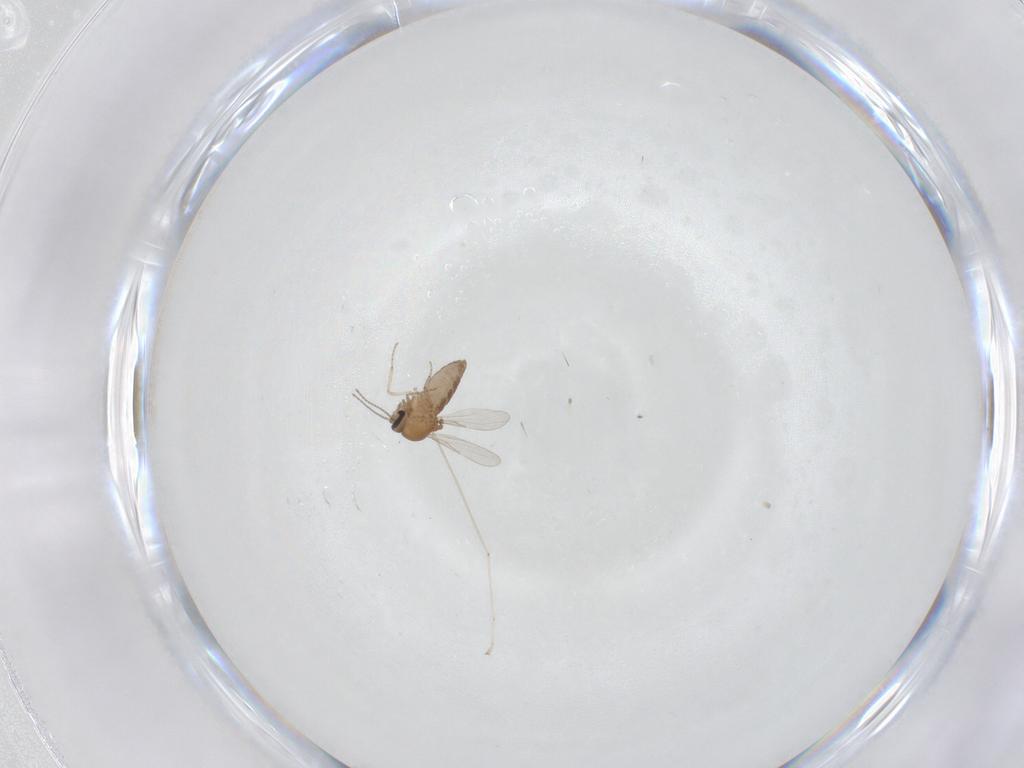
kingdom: Animalia
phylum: Arthropoda
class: Insecta
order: Diptera
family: Ceratopogonidae
